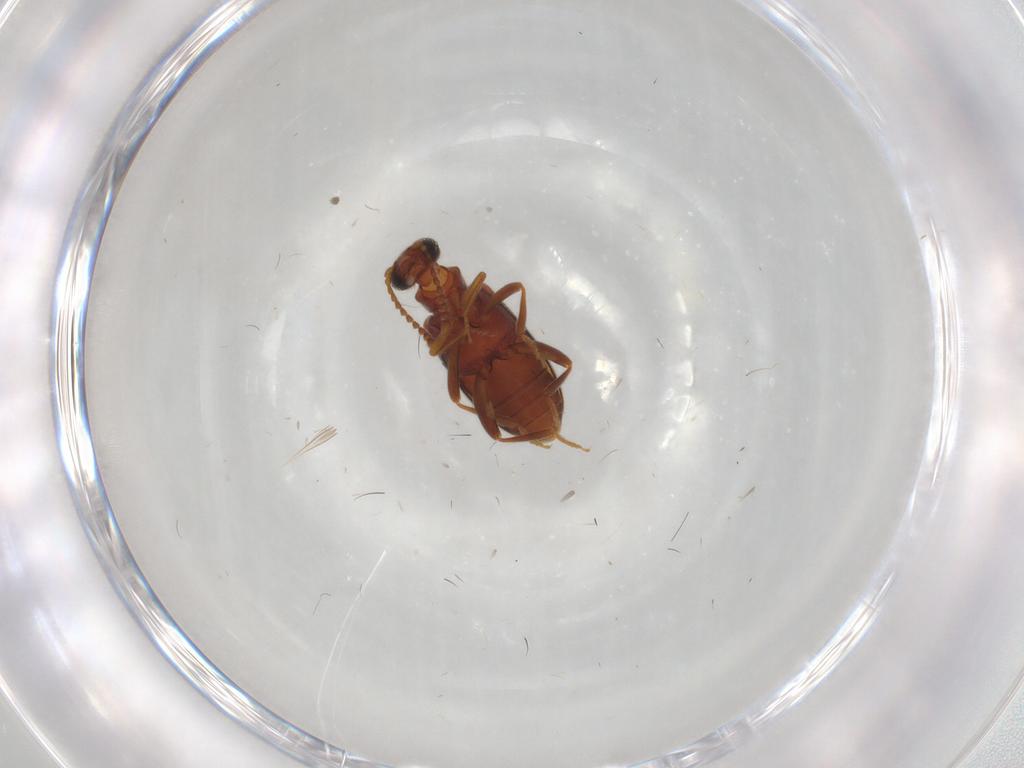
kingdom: Animalia
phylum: Arthropoda
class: Insecta
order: Coleoptera
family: Aderidae
